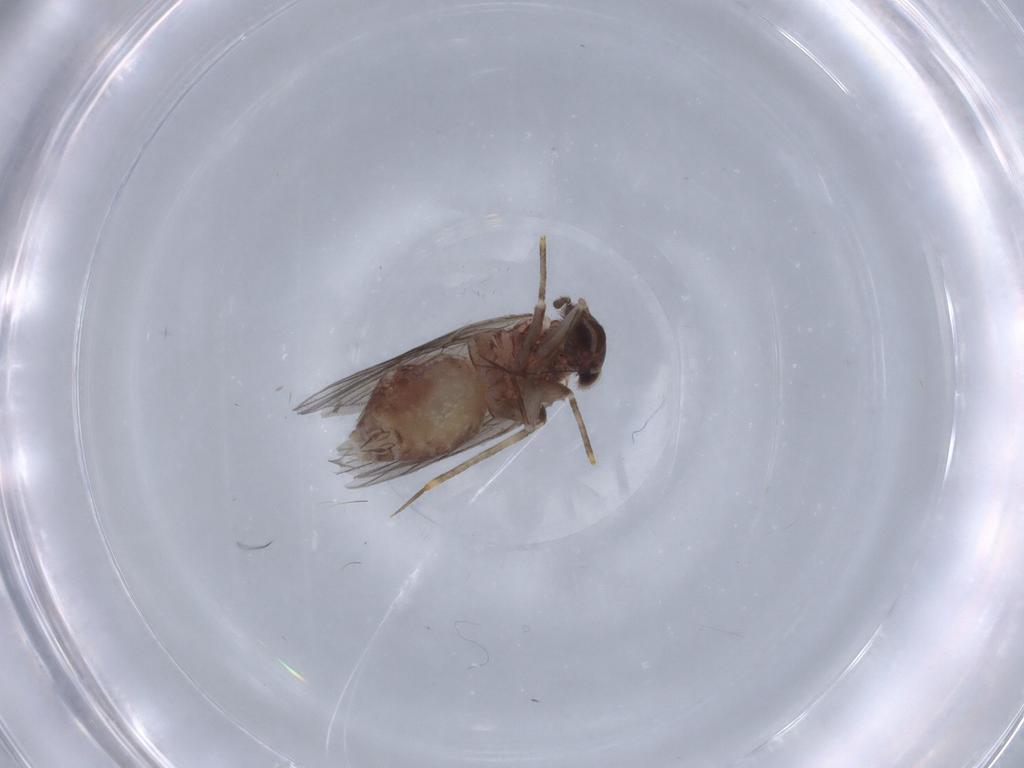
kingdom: Animalia
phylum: Arthropoda
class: Insecta
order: Psocodea
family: Lepidopsocidae
